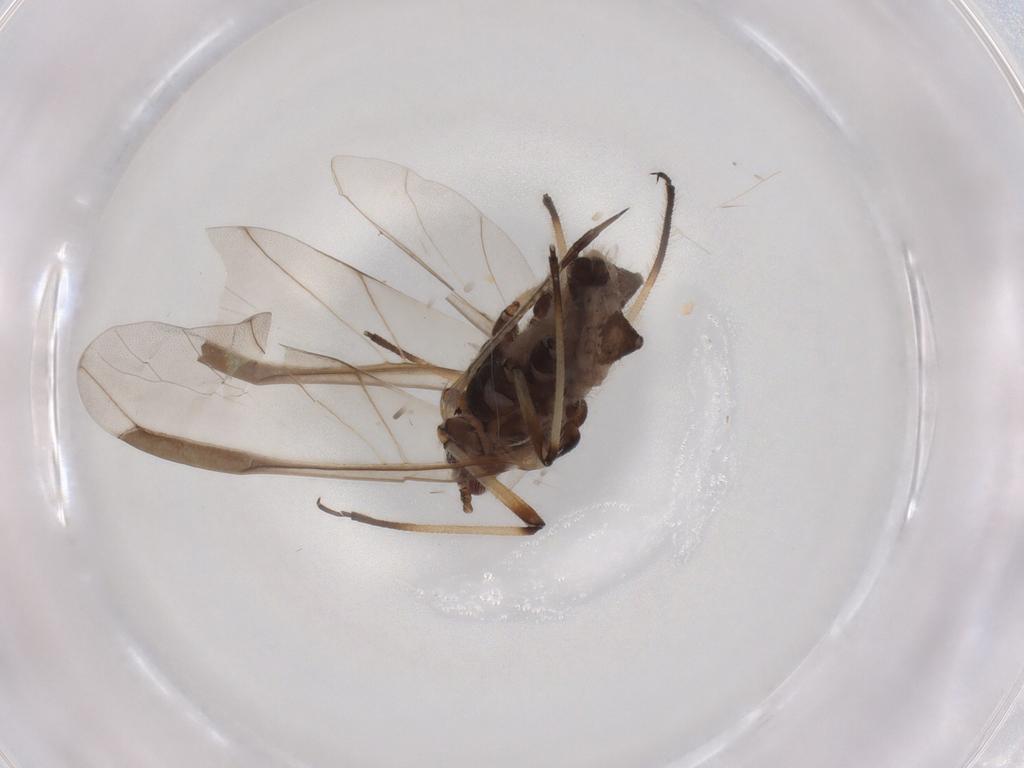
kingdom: Animalia
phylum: Arthropoda
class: Insecta
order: Hemiptera
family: Aphididae
